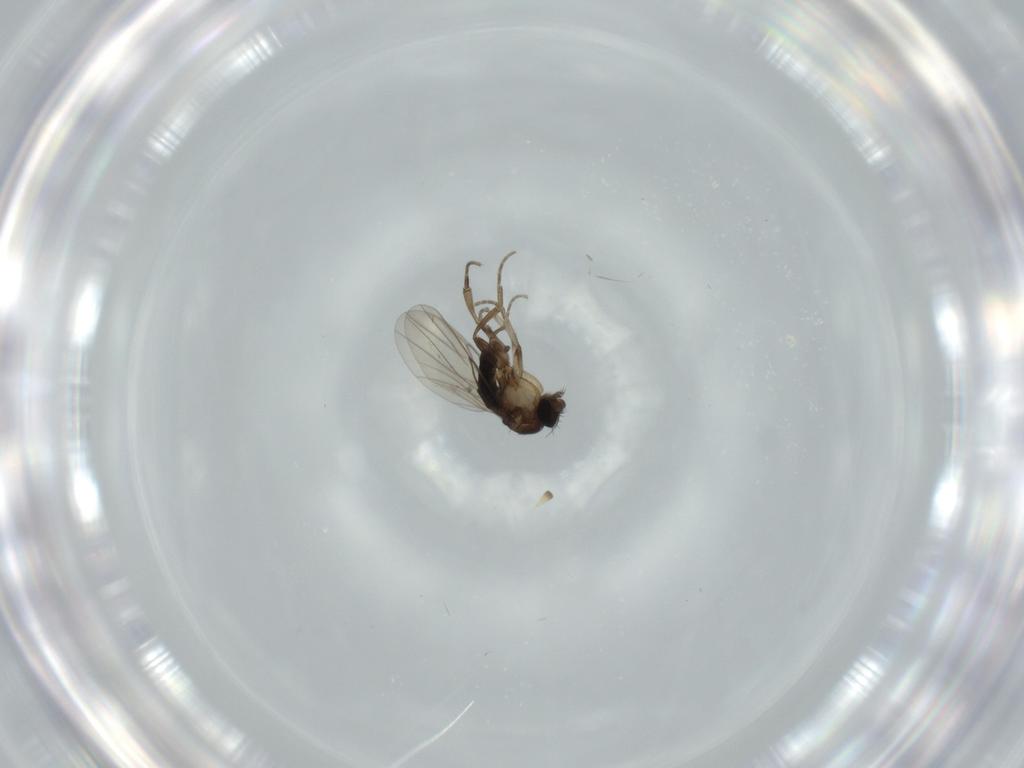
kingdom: Animalia
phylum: Arthropoda
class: Insecta
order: Diptera
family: Phoridae
